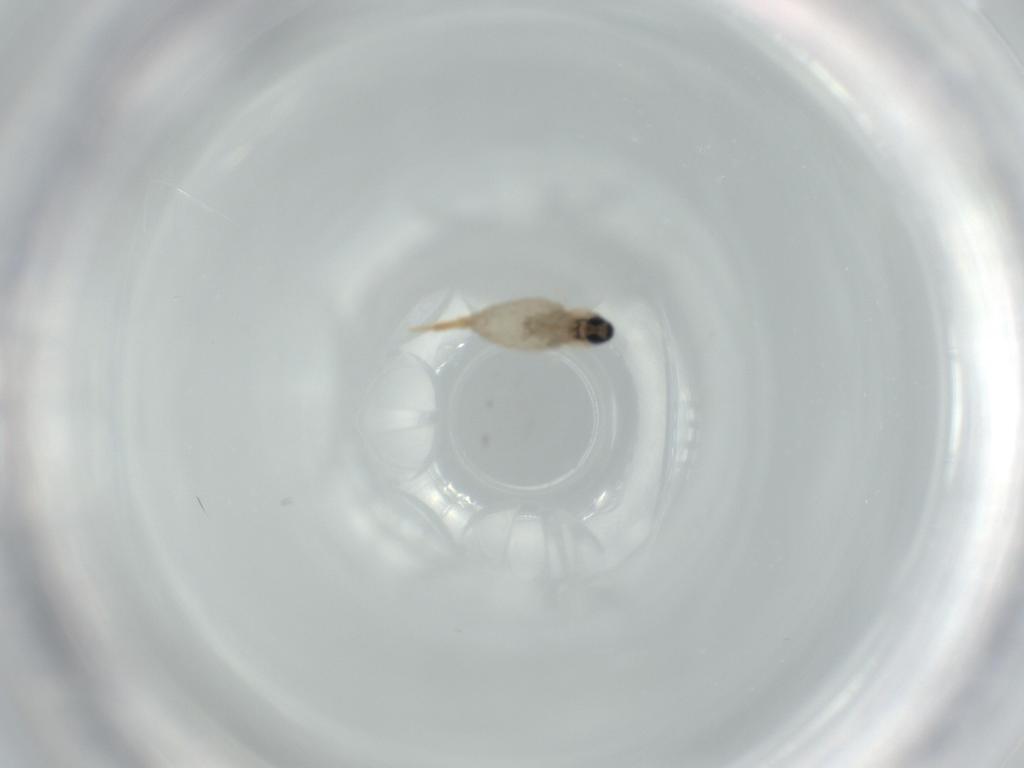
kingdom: Animalia
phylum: Arthropoda
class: Insecta
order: Diptera
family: Cecidomyiidae
